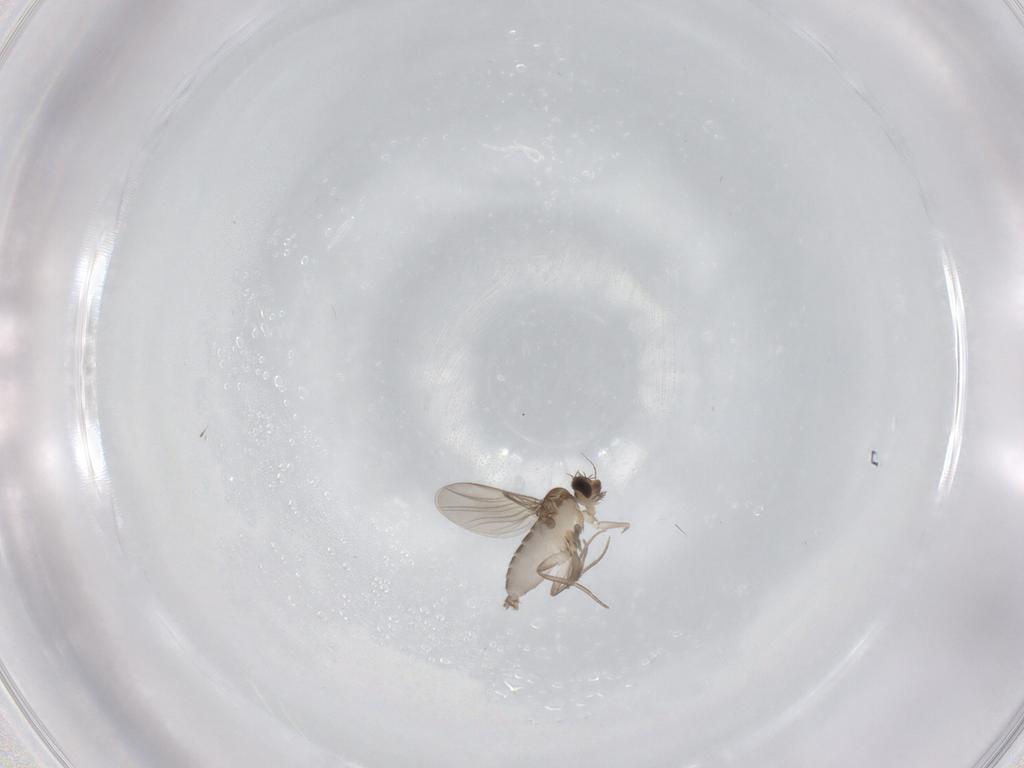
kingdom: Animalia
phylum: Arthropoda
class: Insecta
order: Diptera
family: Phoridae
